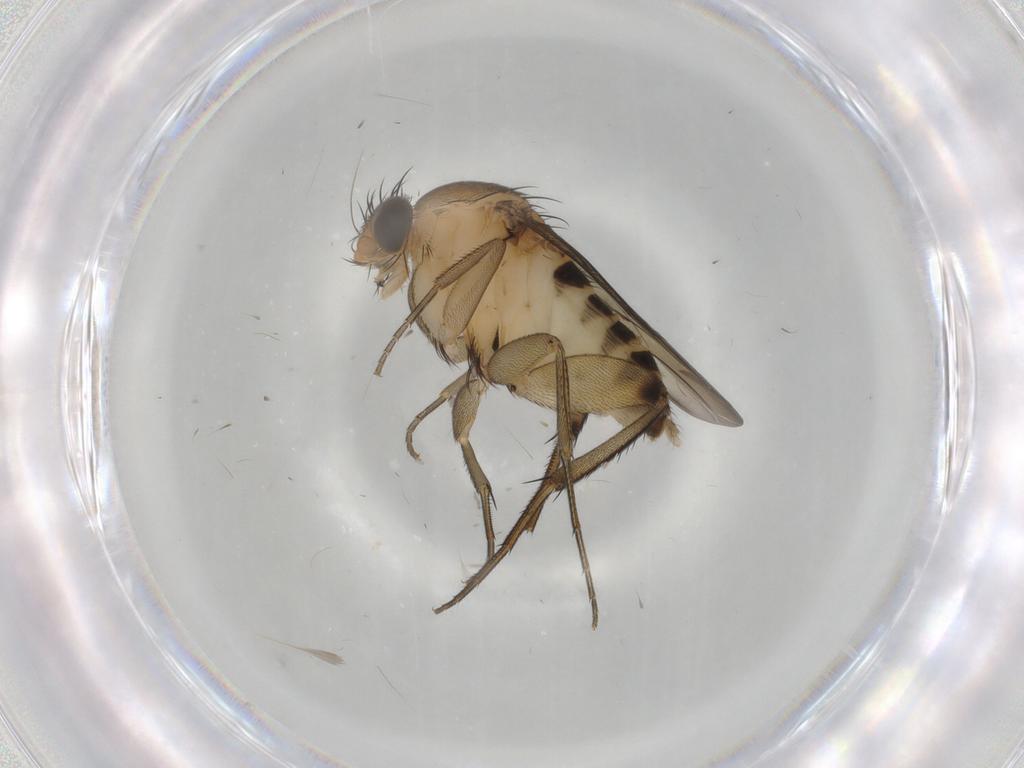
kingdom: Animalia
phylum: Arthropoda
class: Insecta
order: Diptera
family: Phoridae
